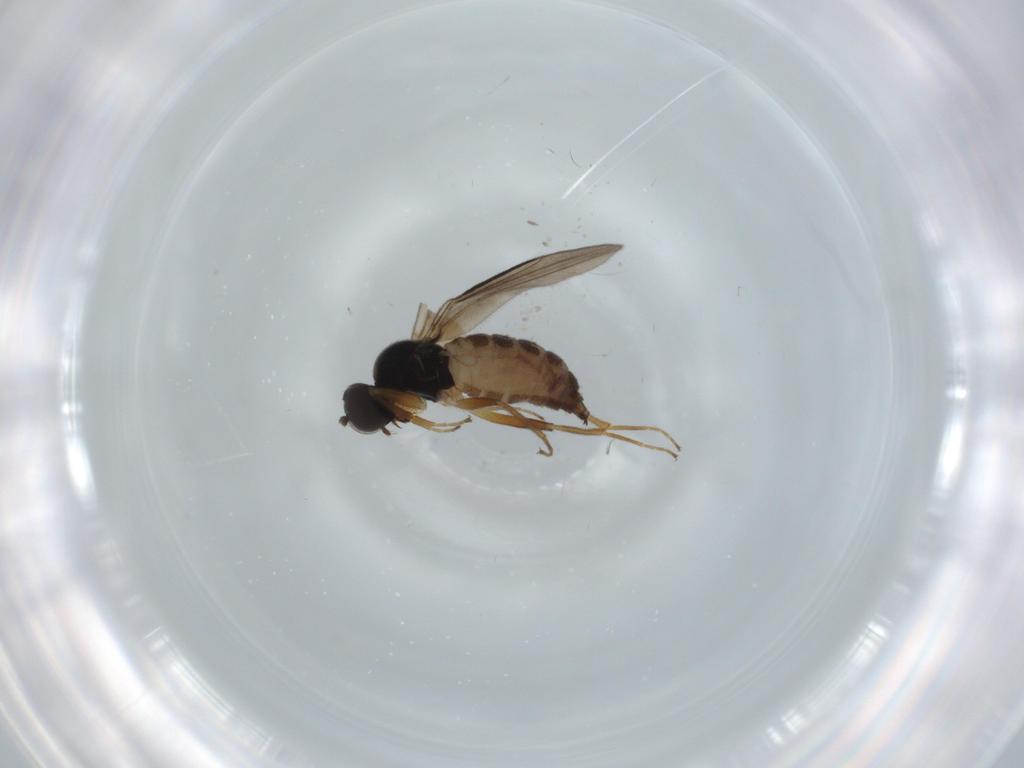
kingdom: Animalia
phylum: Arthropoda
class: Insecta
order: Diptera
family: Hybotidae
